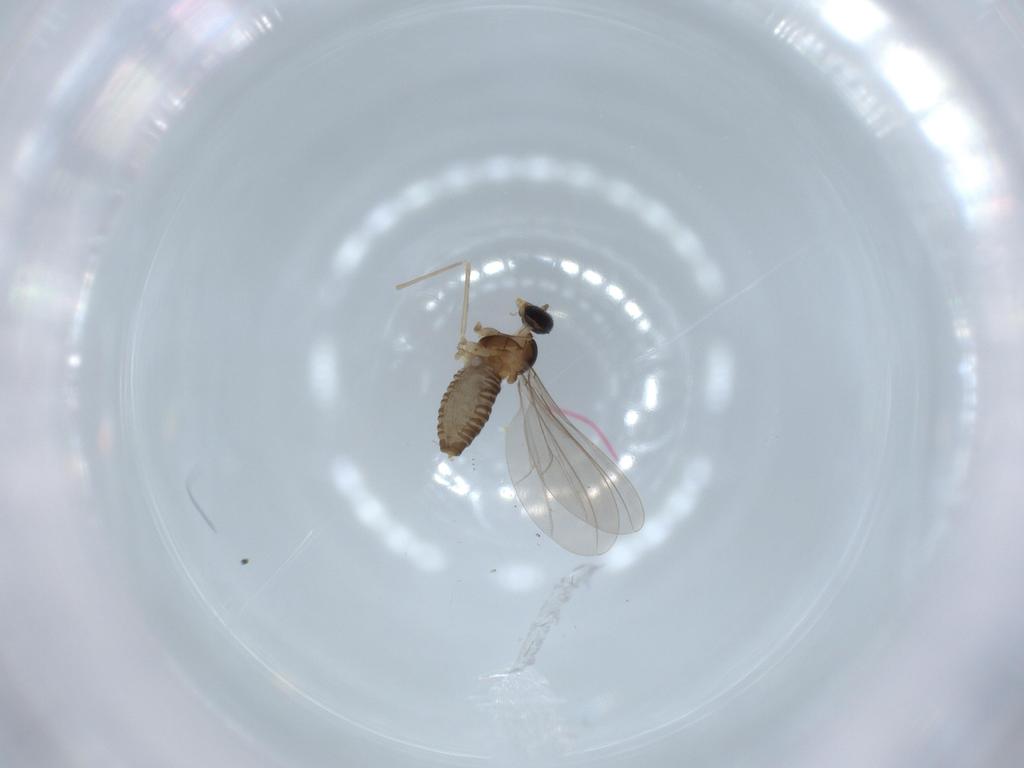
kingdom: Animalia
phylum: Arthropoda
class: Insecta
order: Diptera
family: Cecidomyiidae
